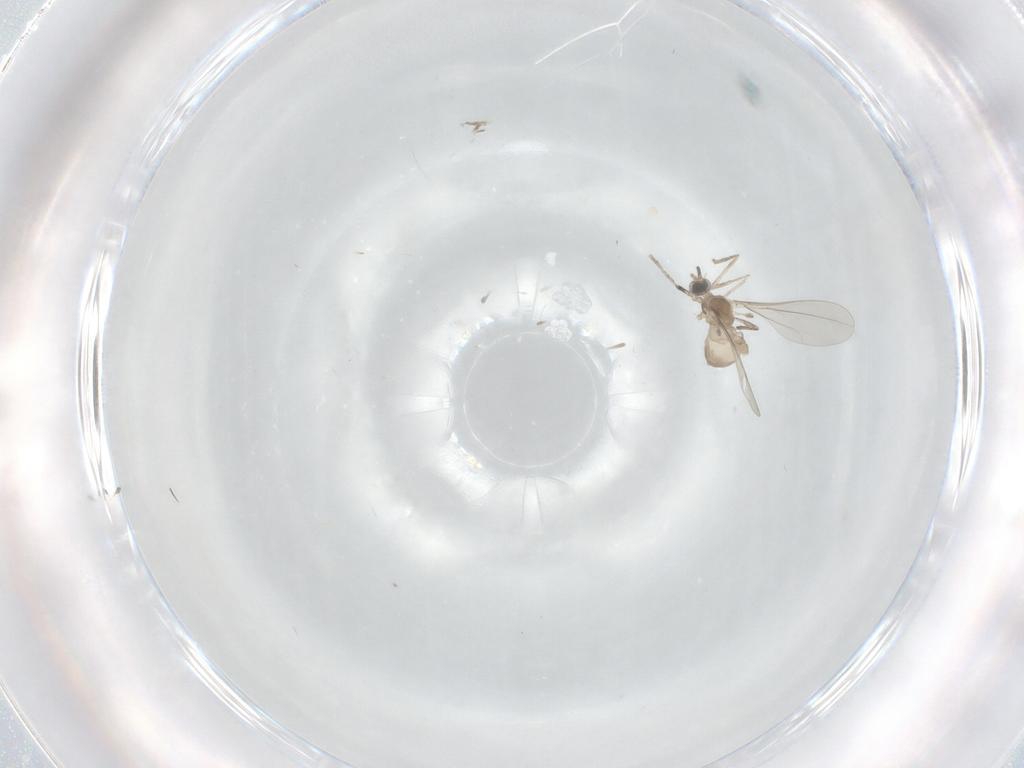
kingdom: Animalia
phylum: Arthropoda
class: Insecta
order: Diptera
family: Cecidomyiidae
